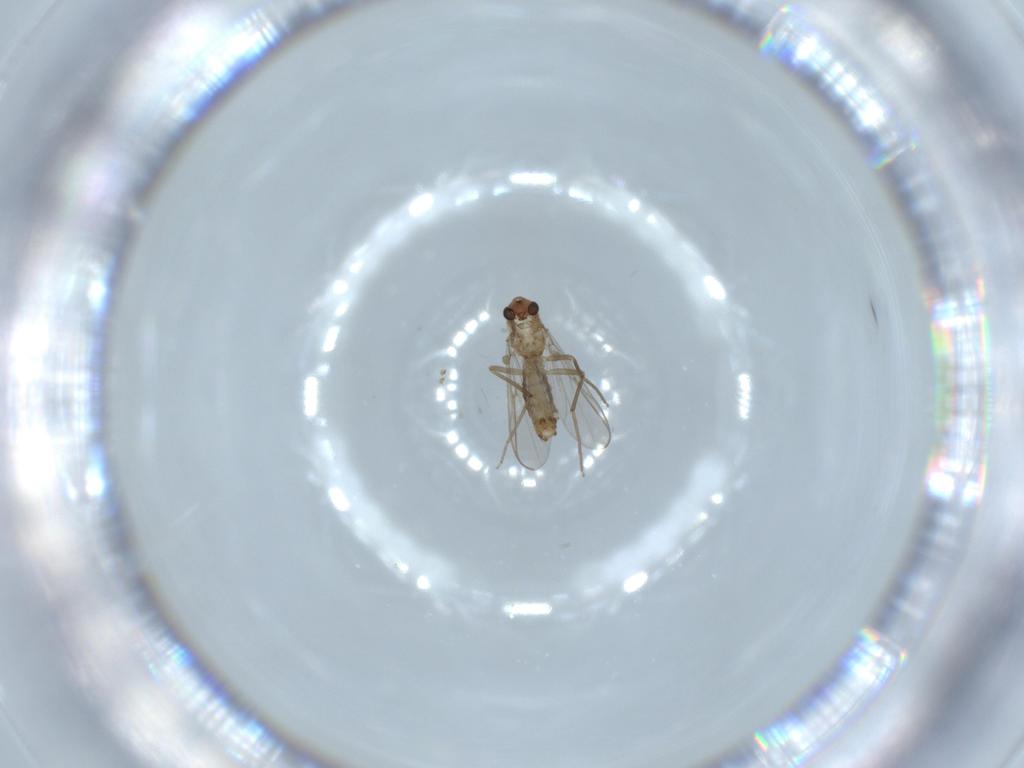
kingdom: Animalia
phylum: Arthropoda
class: Insecta
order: Diptera
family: Chironomidae
